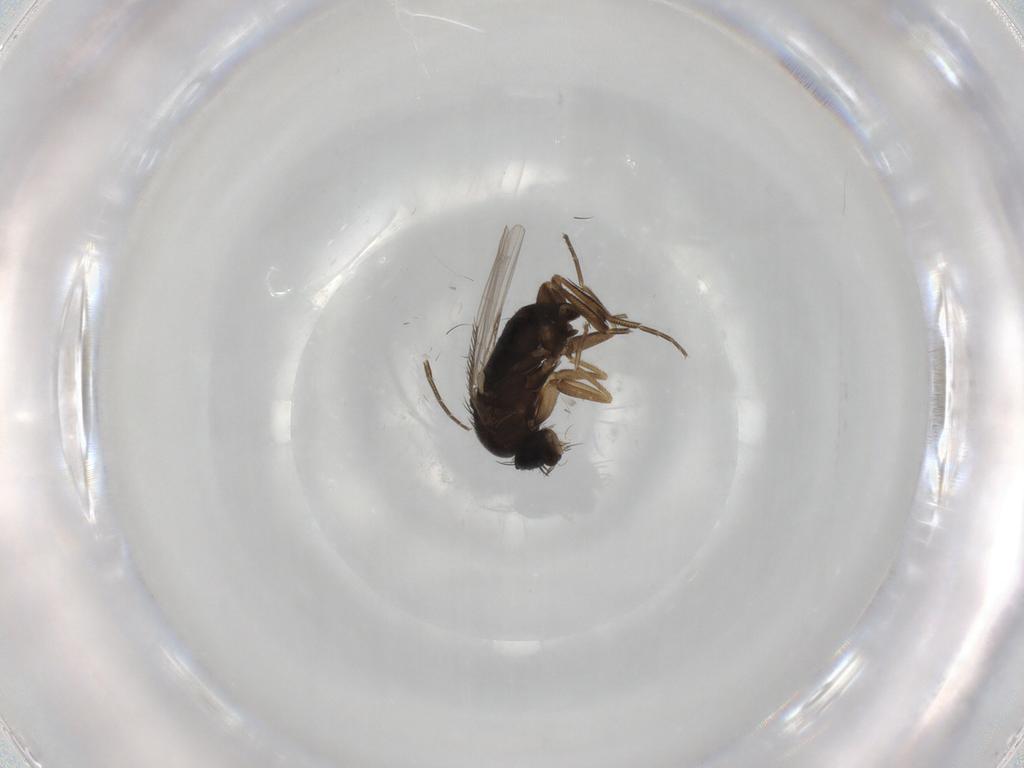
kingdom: Animalia
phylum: Arthropoda
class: Insecta
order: Diptera
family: Phoridae
